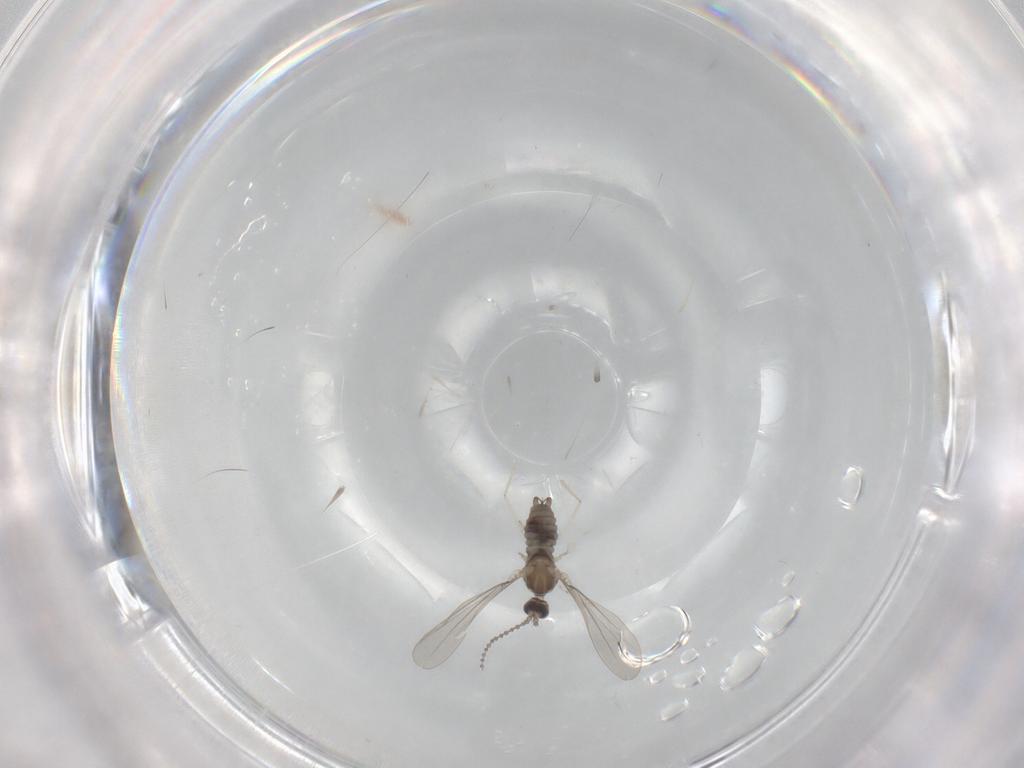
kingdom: Animalia
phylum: Arthropoda
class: Insecta
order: Diptera
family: Cecidomyiidae
